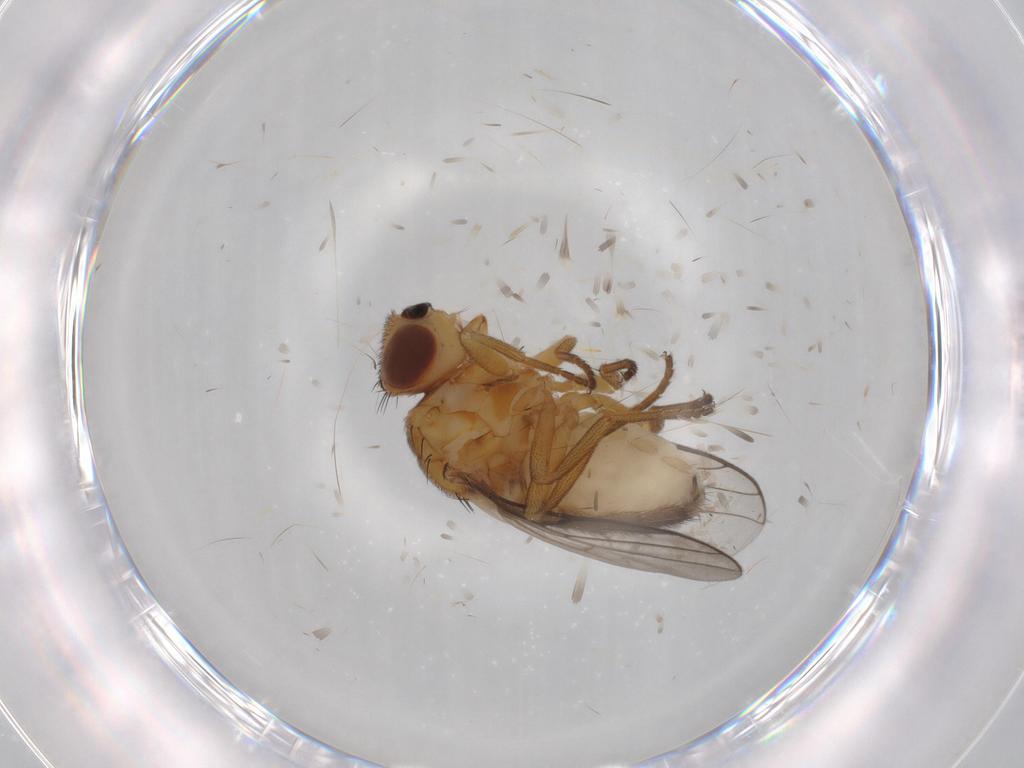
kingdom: Animalia
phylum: Arthropoda
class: Insecta
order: Diptera
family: Chloropidae
